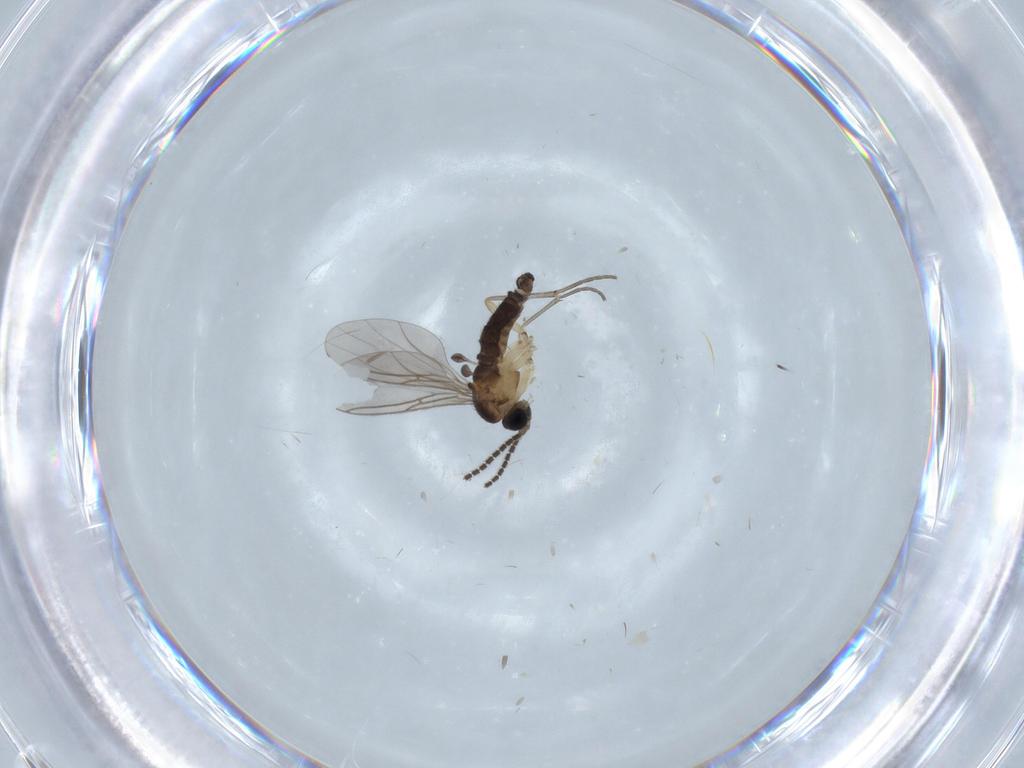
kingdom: Animalia
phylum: Arthropoda
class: Insecta
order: Diptera
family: Sciaridae
